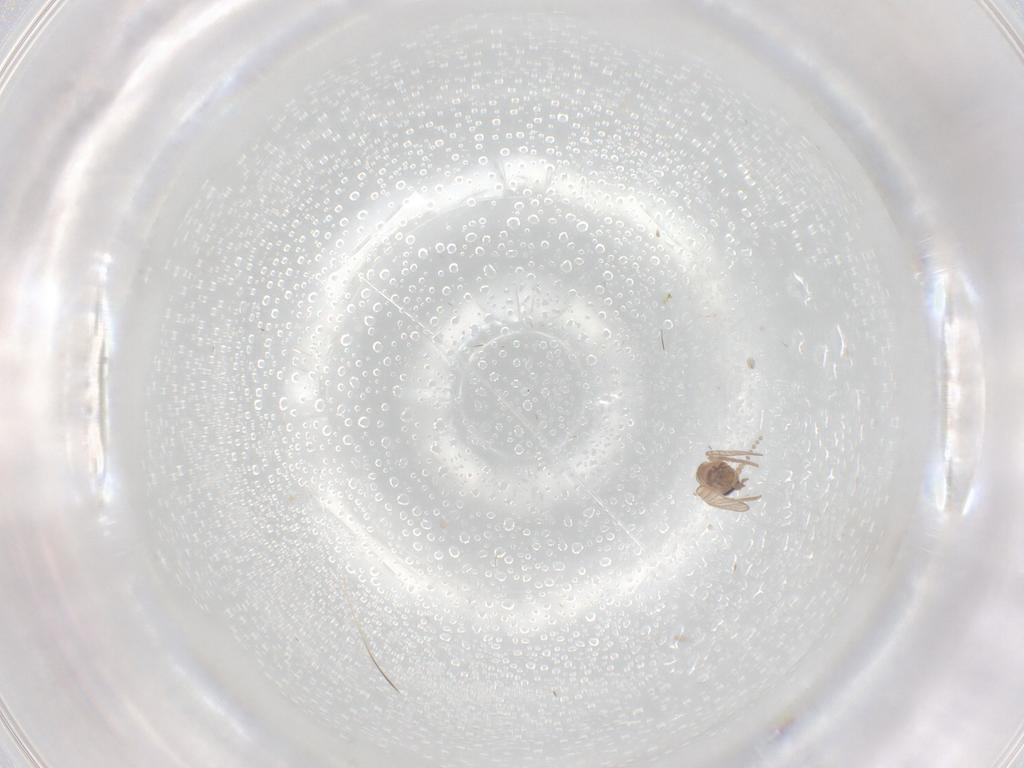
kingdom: Animalia
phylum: Arthropoda
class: Insecta
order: Diptera
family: Psychodidae
